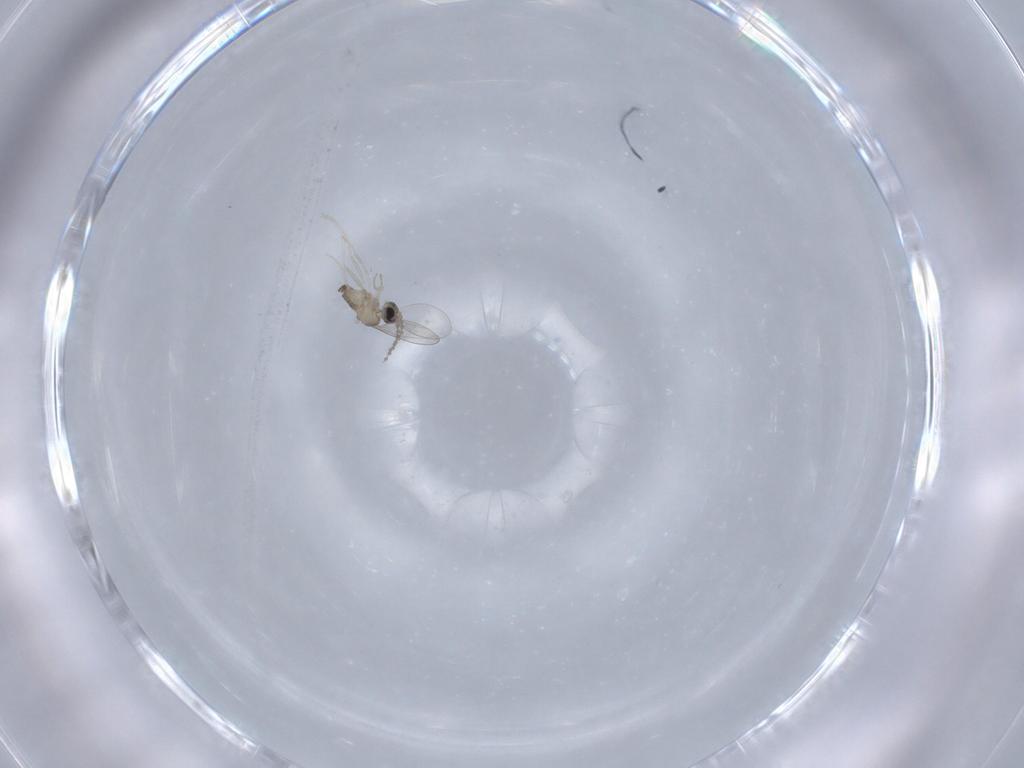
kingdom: Animalia
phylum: Arthropoda
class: Insecta
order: Diptera
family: Cecidomyiidae
